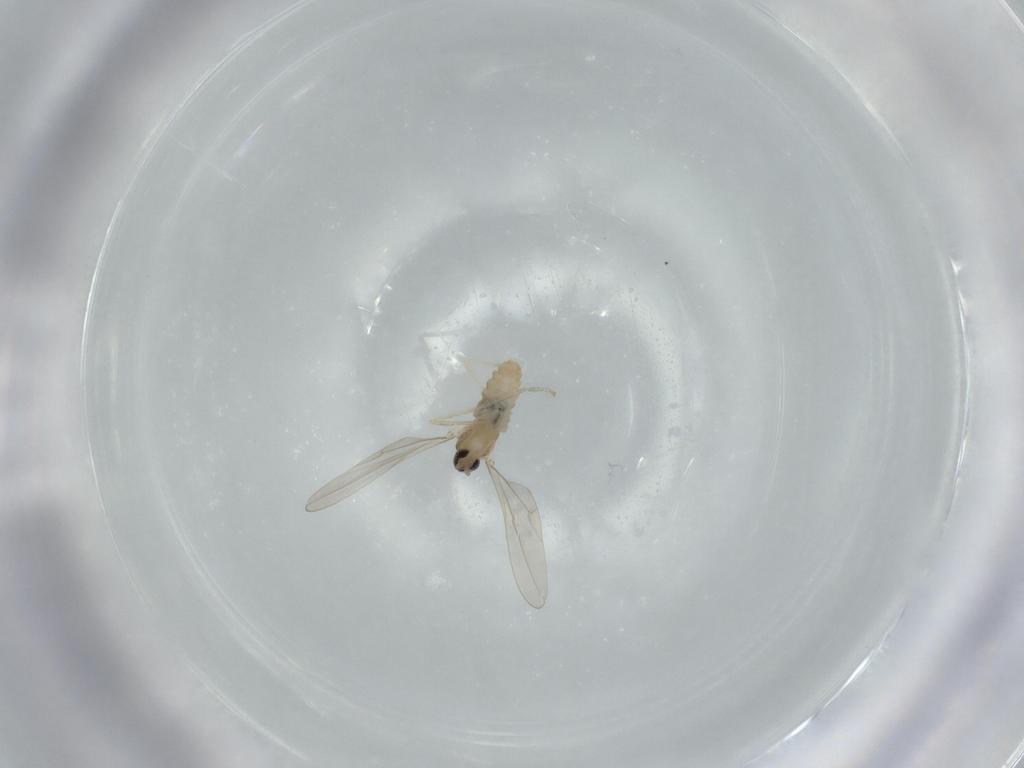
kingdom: Animalia
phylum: Arthropoda
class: Insecta
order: Diptera
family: Cecidomyiidae
